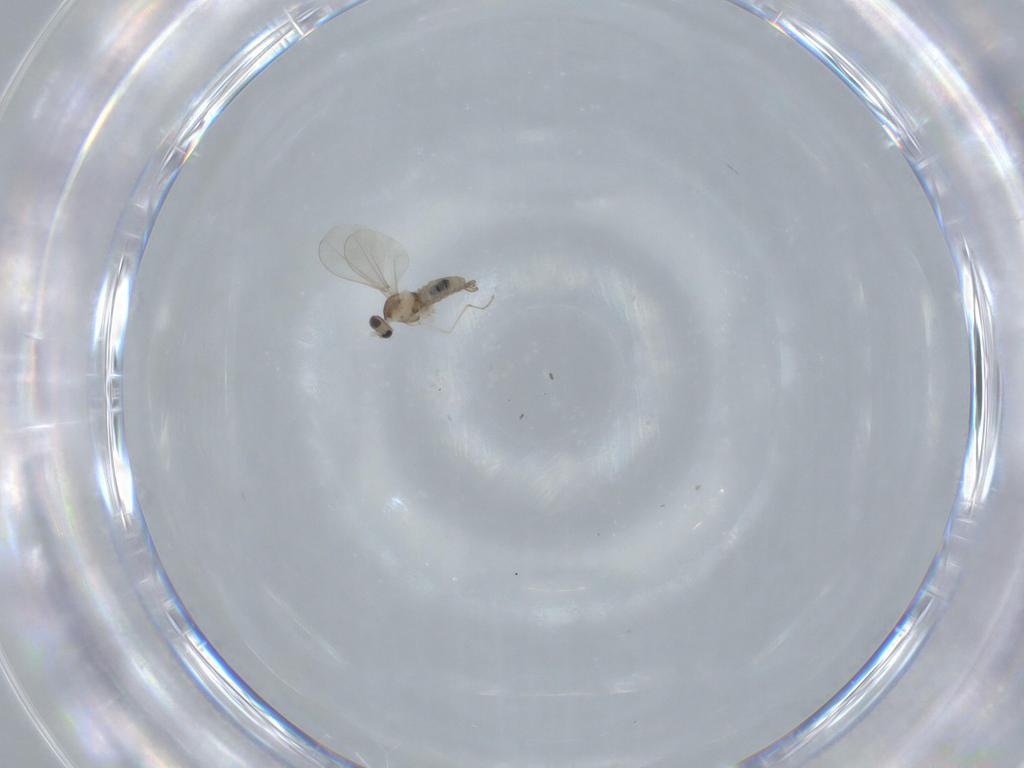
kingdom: Animalia
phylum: Arthropoda
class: Insecta
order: Diptera
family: Cecidomyiidae
